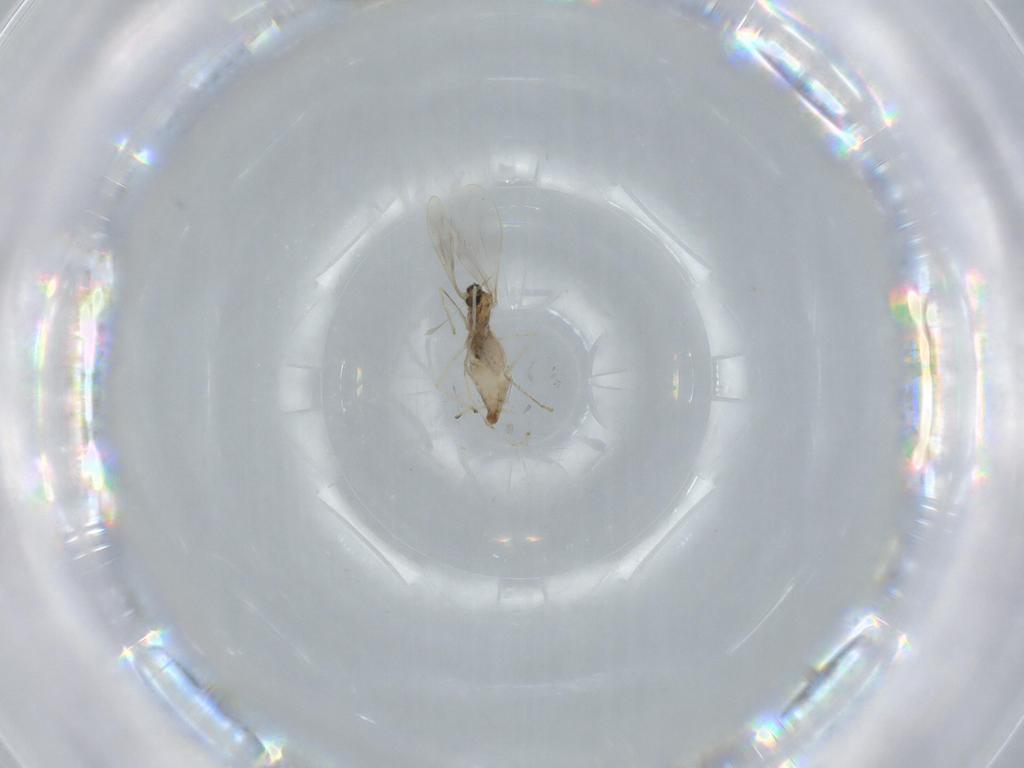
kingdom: Animalia
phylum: Arthropoda
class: Insecta
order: Diptera
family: Cecidomyiidae
